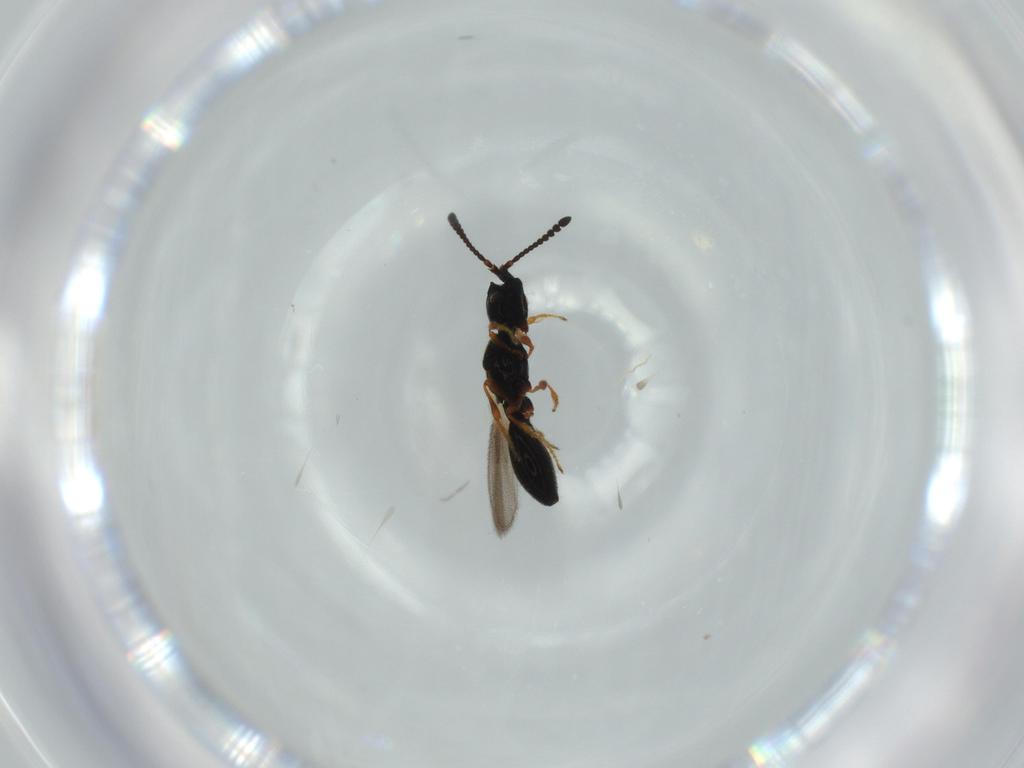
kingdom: Animalia
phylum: Arthropoda
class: Insecta
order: Hymenoptera
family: Diapriidae
